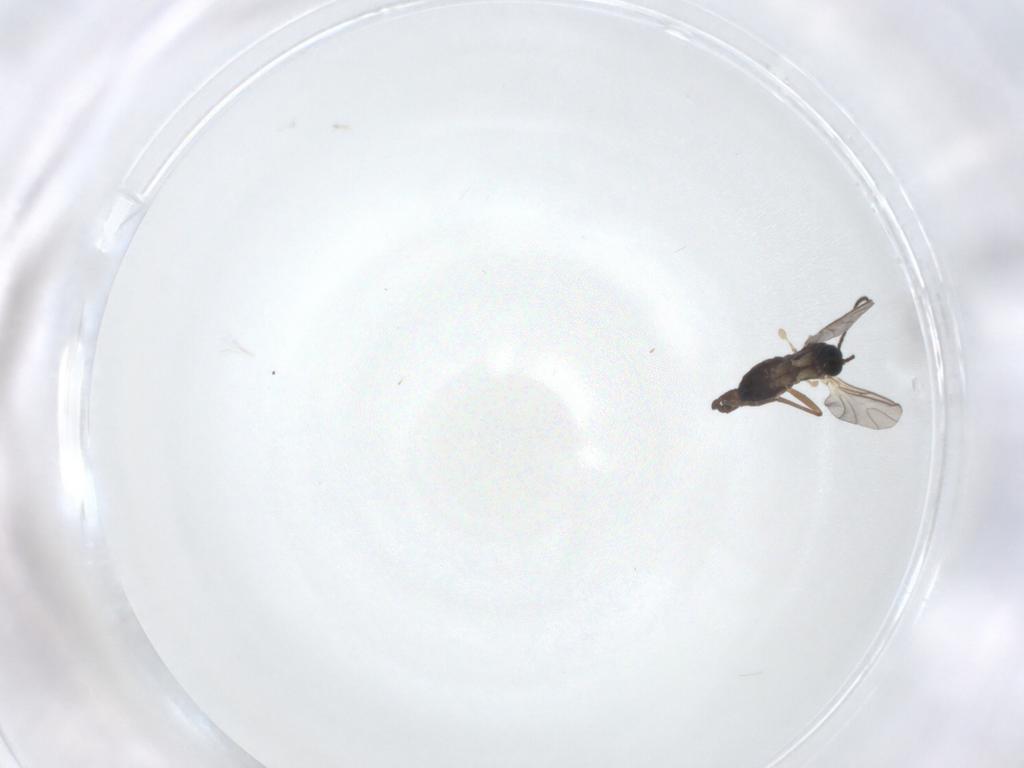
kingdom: Animalia
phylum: Arthropoda
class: Insecta
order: Diptera
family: Sciaridae
